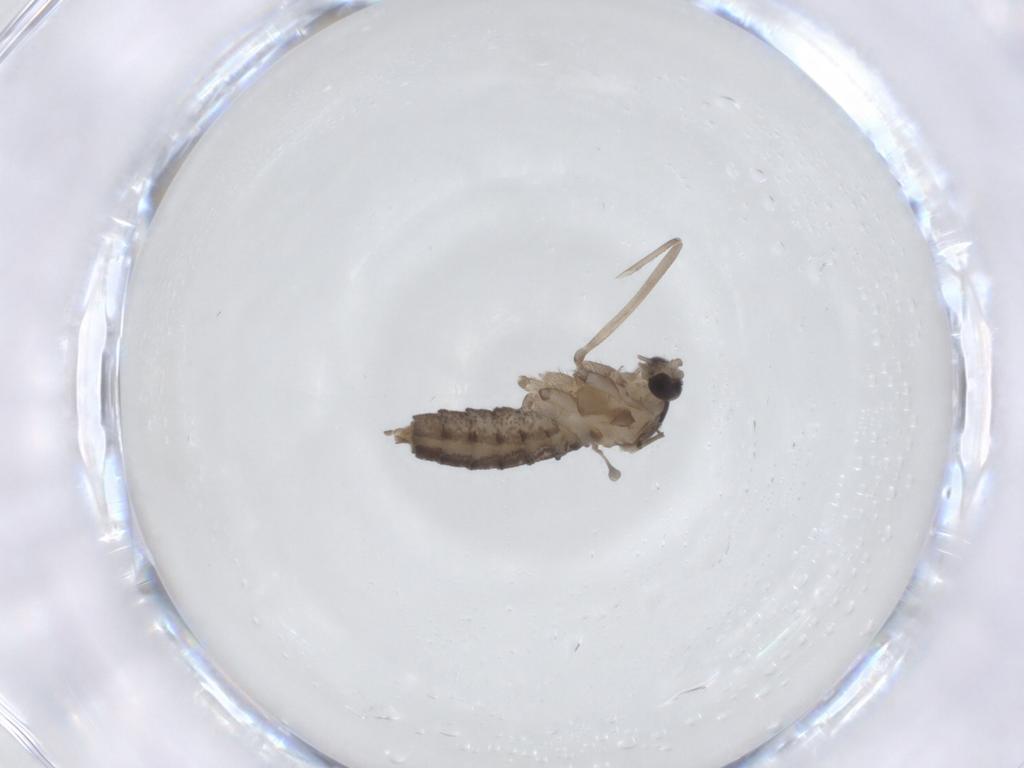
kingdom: Animalia
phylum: Arthropoda
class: Insecta
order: Diptera
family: Cecidomyiidae
